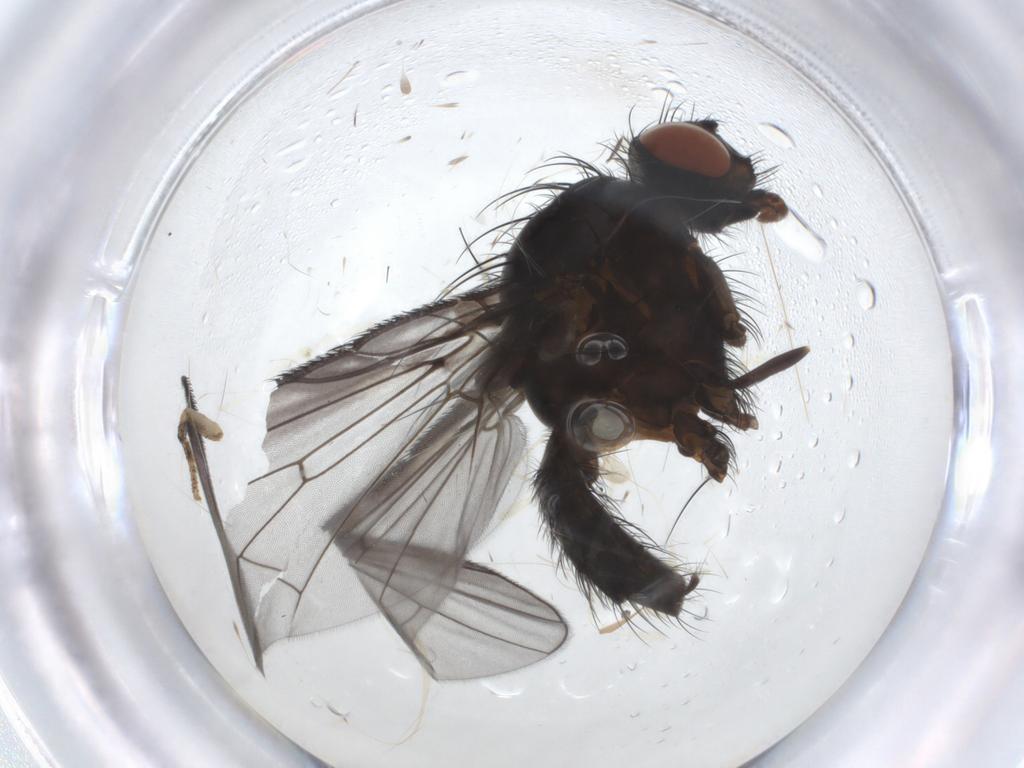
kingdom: Animalia
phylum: Arthropoda
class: Insecta
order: Diptera
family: Anthomyiidae
